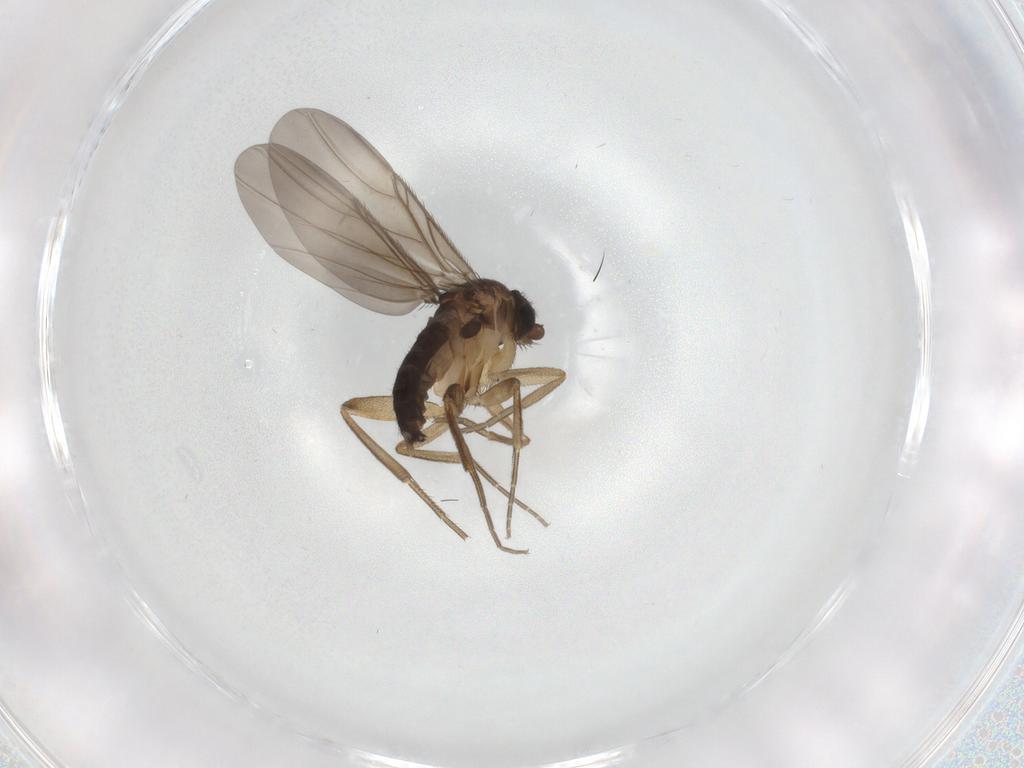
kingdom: Animalia
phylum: Arthropoda
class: Insecta
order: Diptera
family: Phoridae
